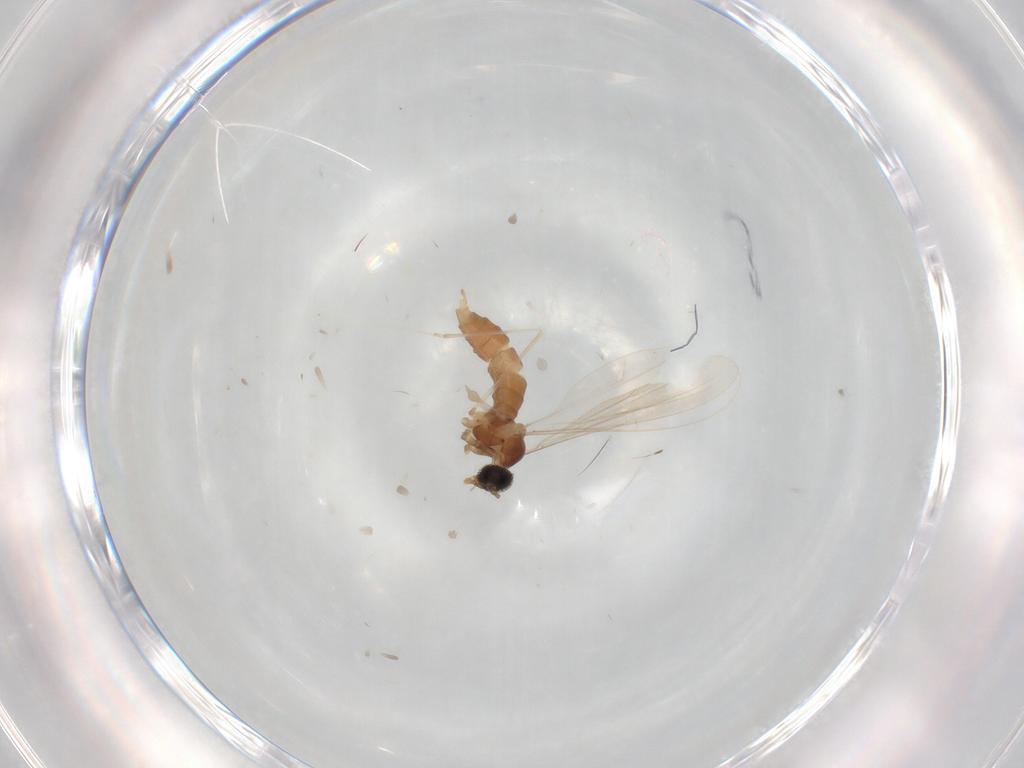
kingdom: Animalia
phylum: Arthropoda
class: Insecta
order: Diptera
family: Cecidomyiidae
